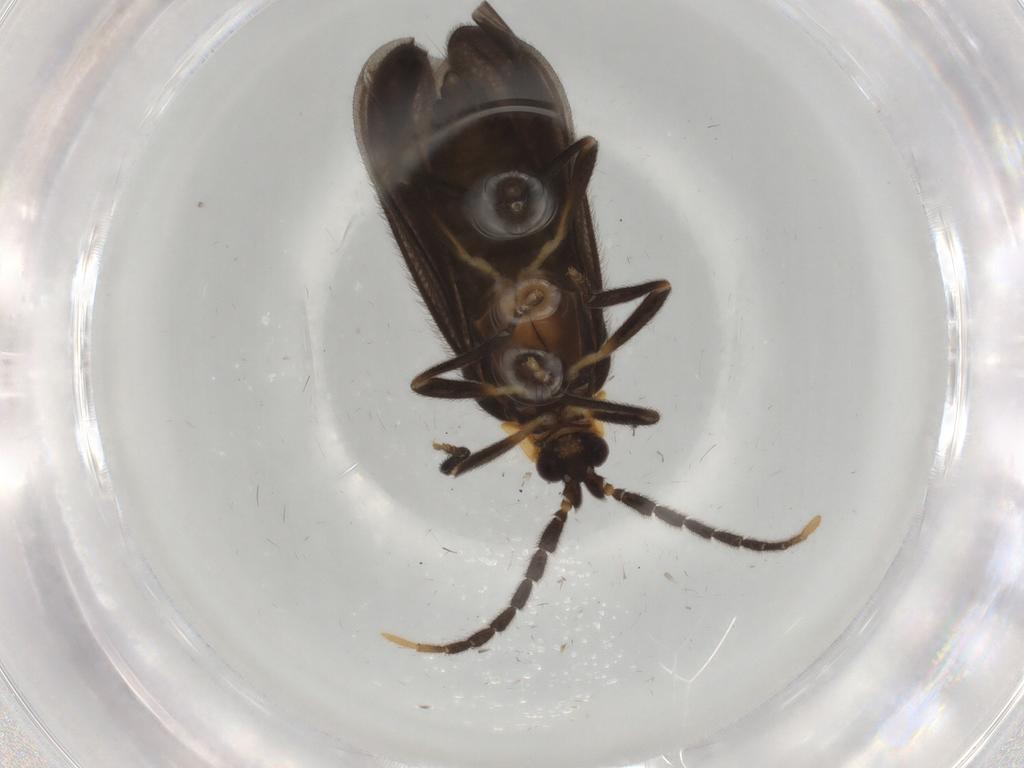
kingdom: Animalia
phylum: Arthropoda
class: Insecta
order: Coleoptera
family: Lycidae
